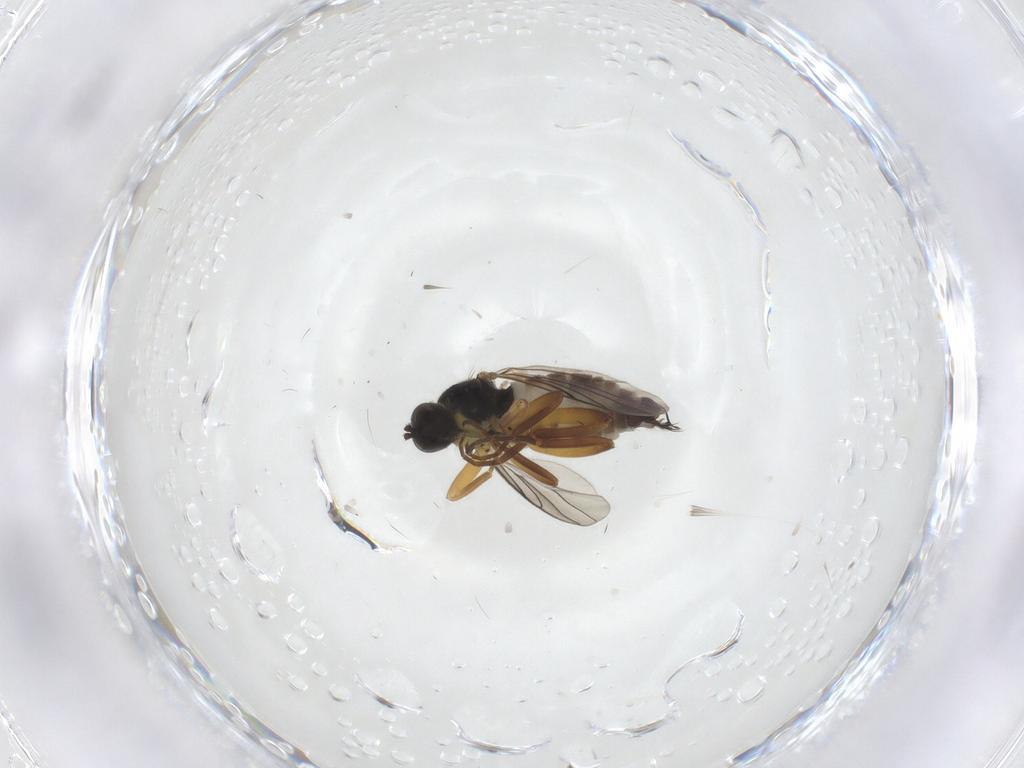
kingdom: Animalia
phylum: Arthropoda
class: Insecta
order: Diptera
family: Hybotidae
